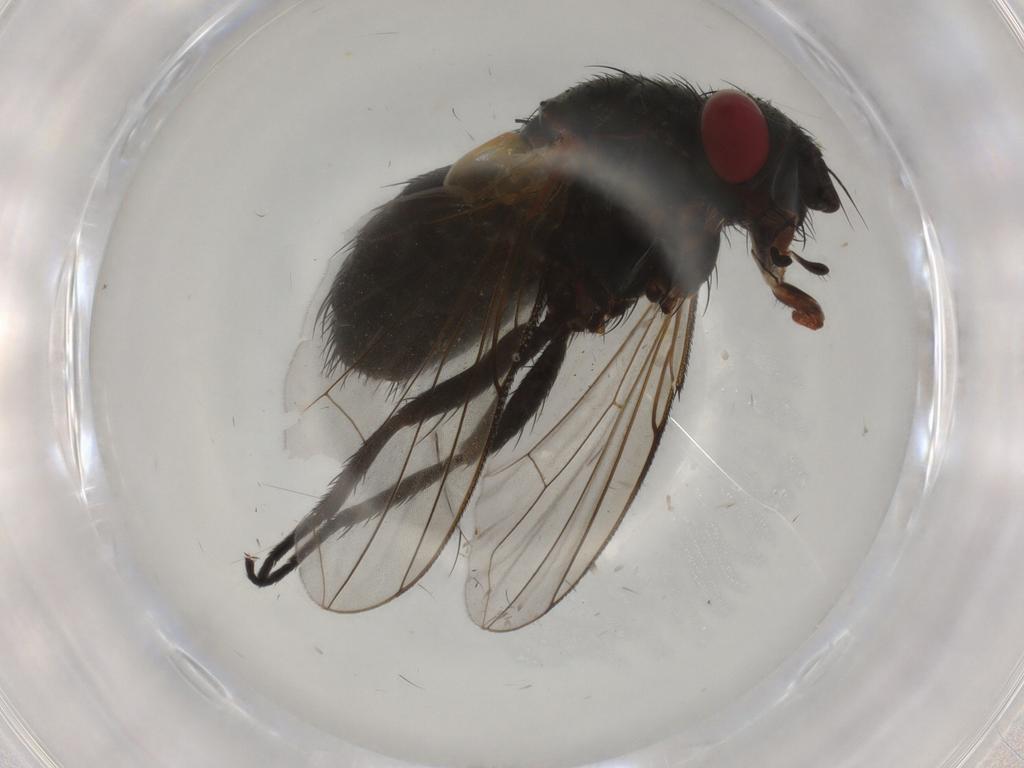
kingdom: Animalia
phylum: Arthropoda
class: Insecta
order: Diptera
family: Tachinidae
